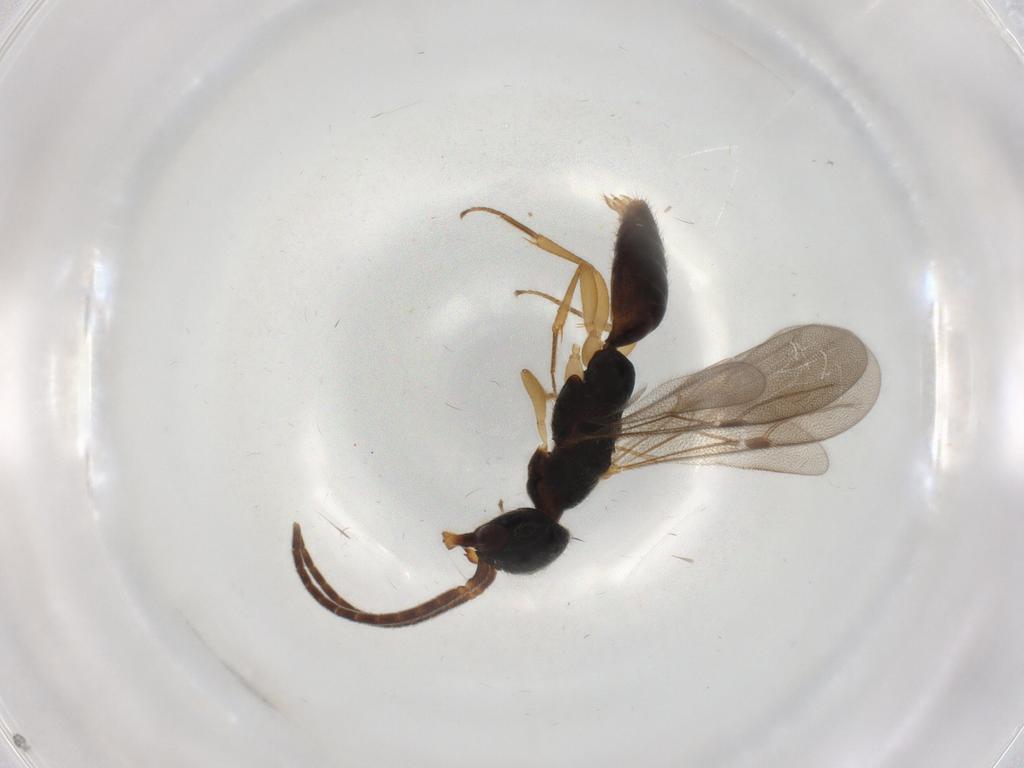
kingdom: Animalia
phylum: Arthropoda
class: Insecta
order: Hymenoptera
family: Bethylidae
